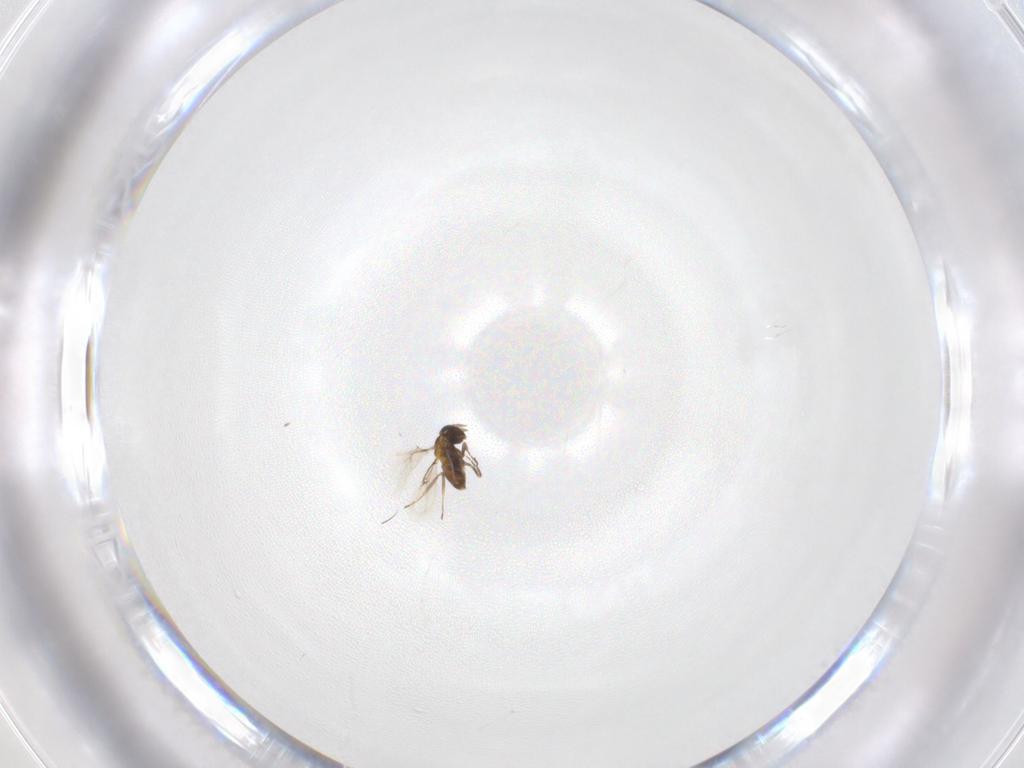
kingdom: Animalia
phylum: Arthropoda
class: Insecta
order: Hymenoptera
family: Trichogrammatidae
